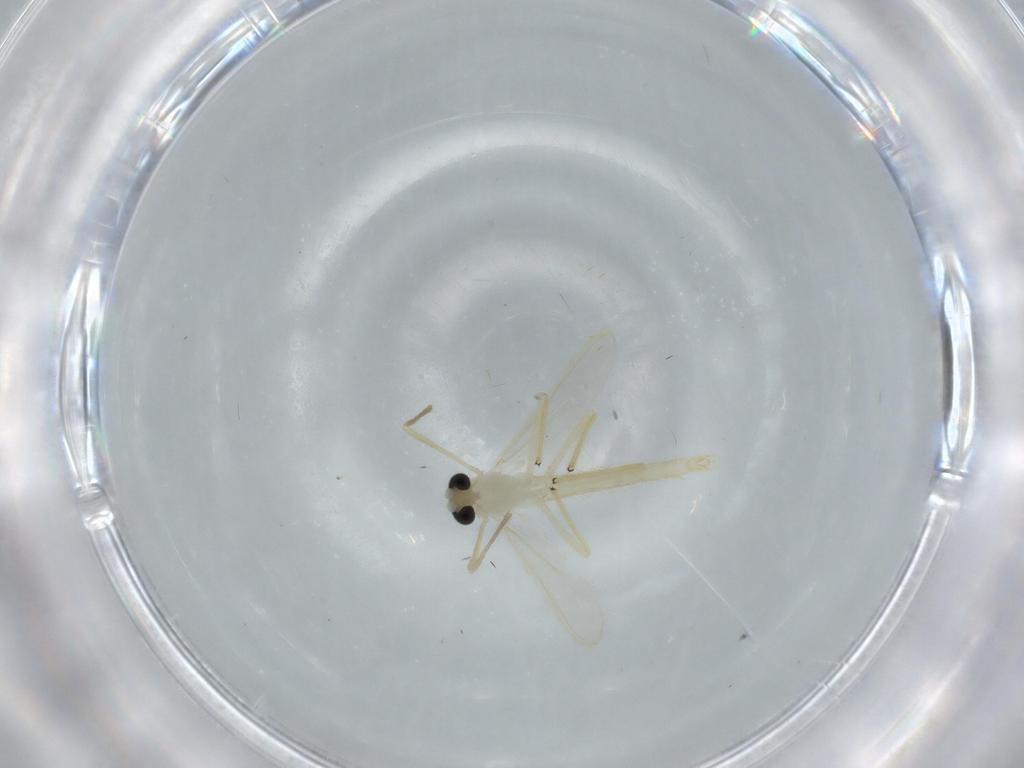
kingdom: Animalia
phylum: Arthropoda
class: Insecta
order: Diptera
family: Chironomidae
